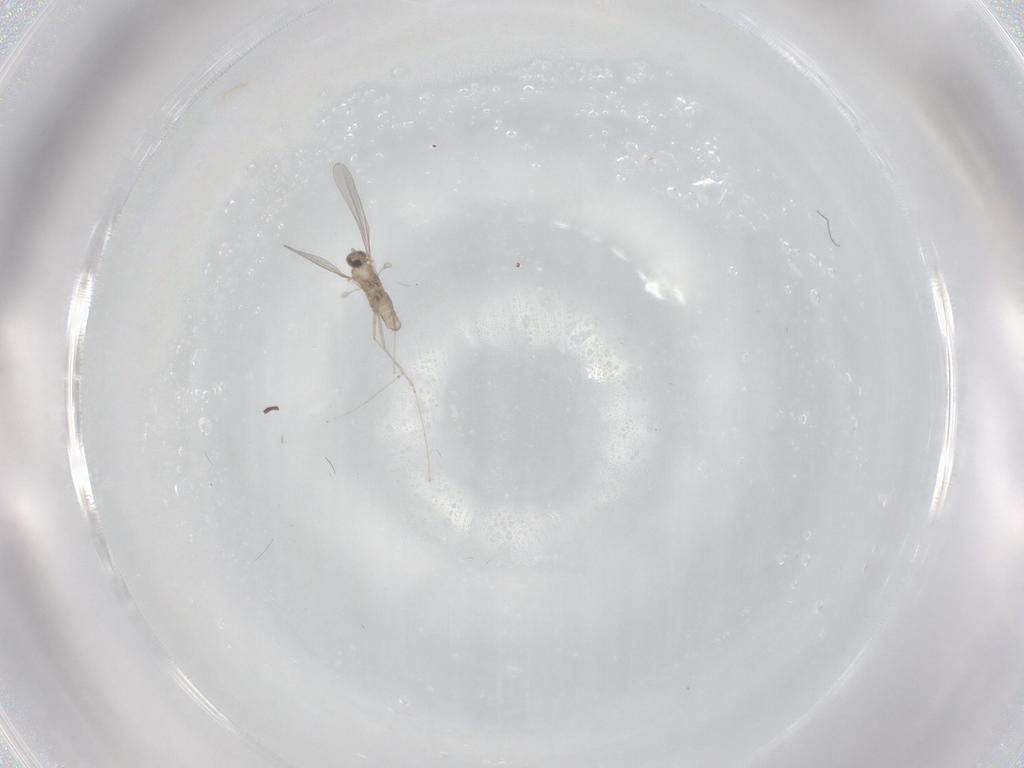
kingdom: Animalia
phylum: Arthropoda
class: Insecta
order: Diptera
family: Cecidomyiidae
